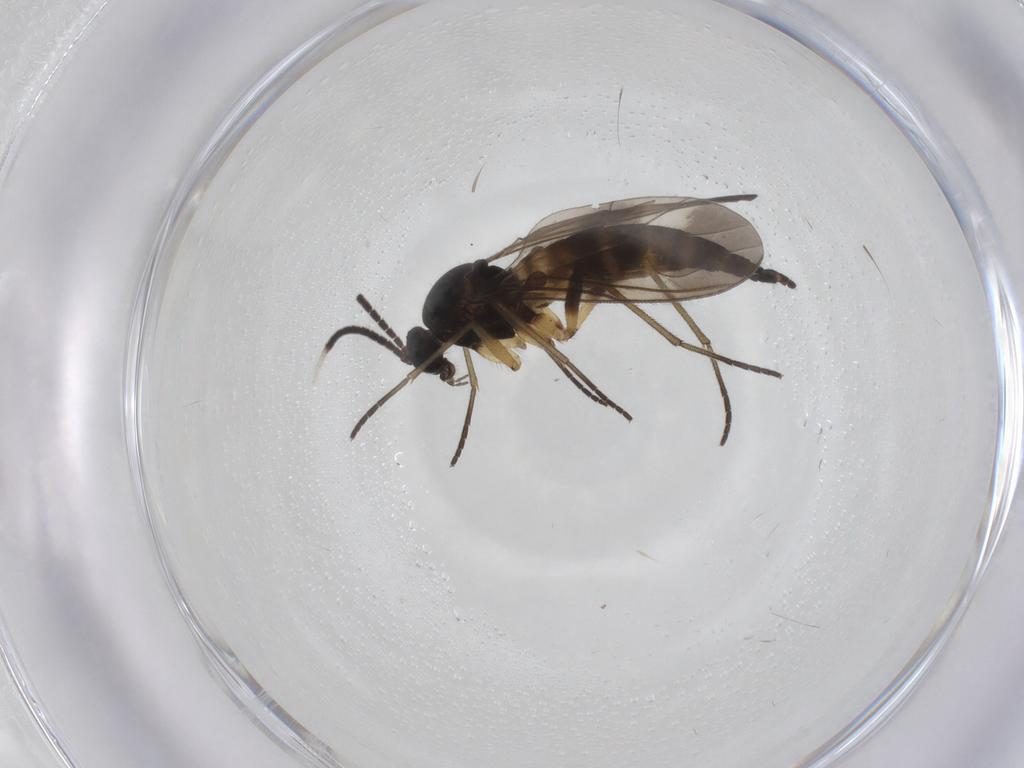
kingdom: Animalia
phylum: Arthropoda
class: Insecta
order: Diptera
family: Sciaridae
